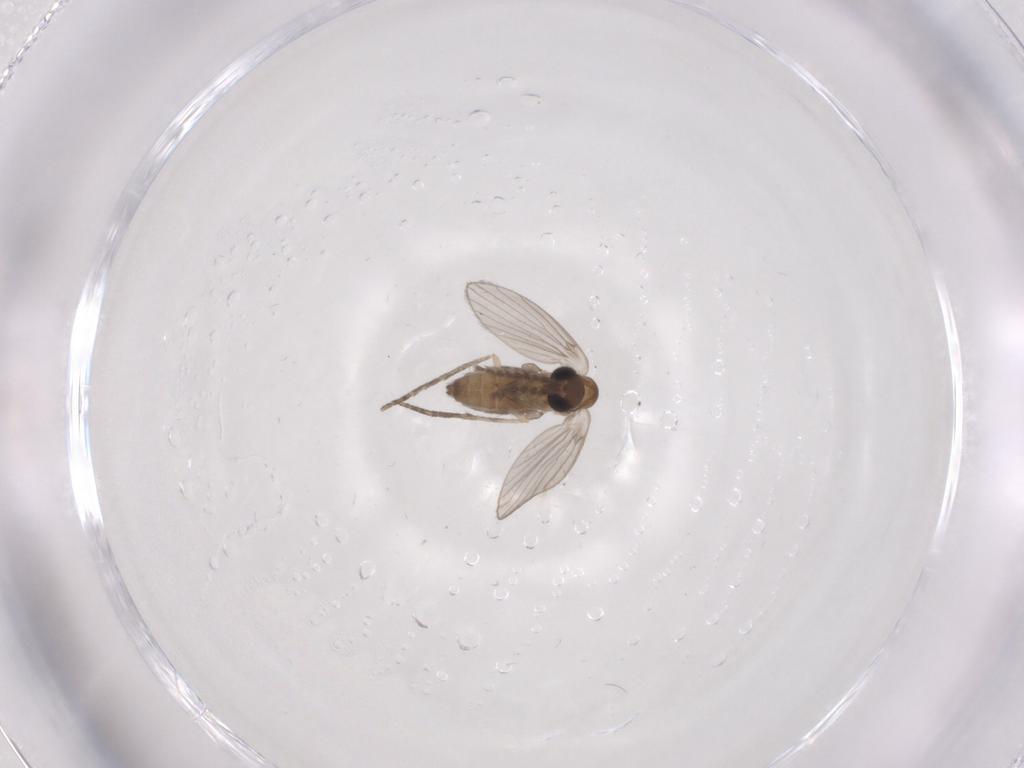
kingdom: Animalia
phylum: Arthropoda
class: Insecta
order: Diptera
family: Psychodidae
